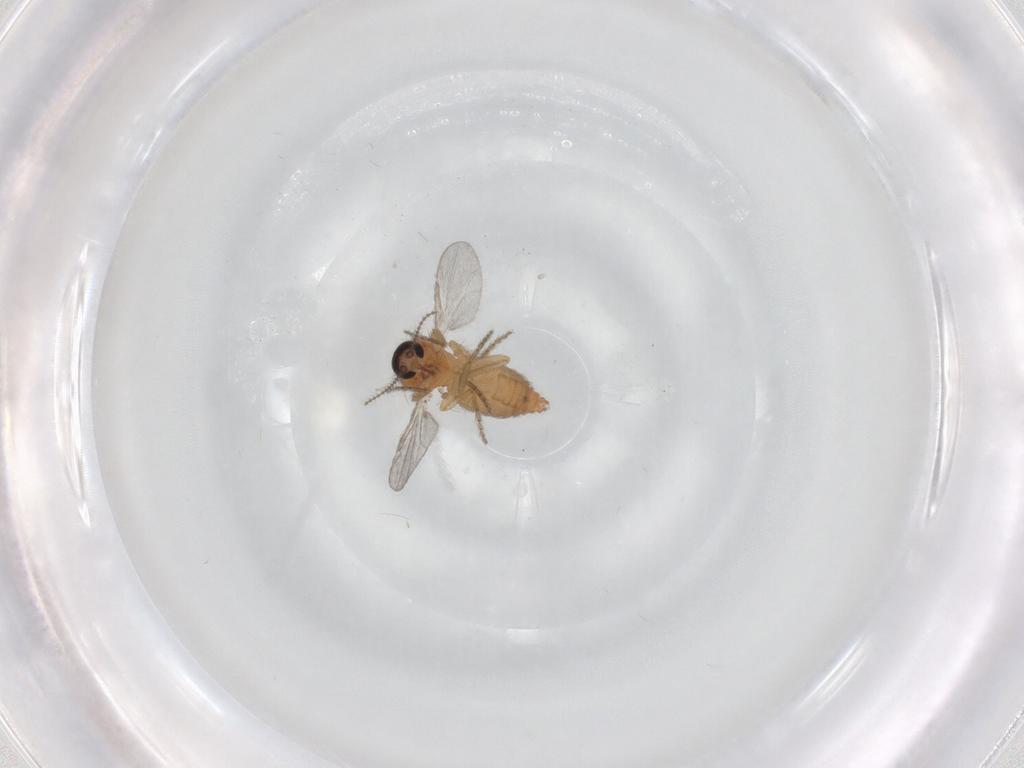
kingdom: Animalia
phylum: Arthropoda
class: Insecta
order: Diptera
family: Ceratopogonidae
